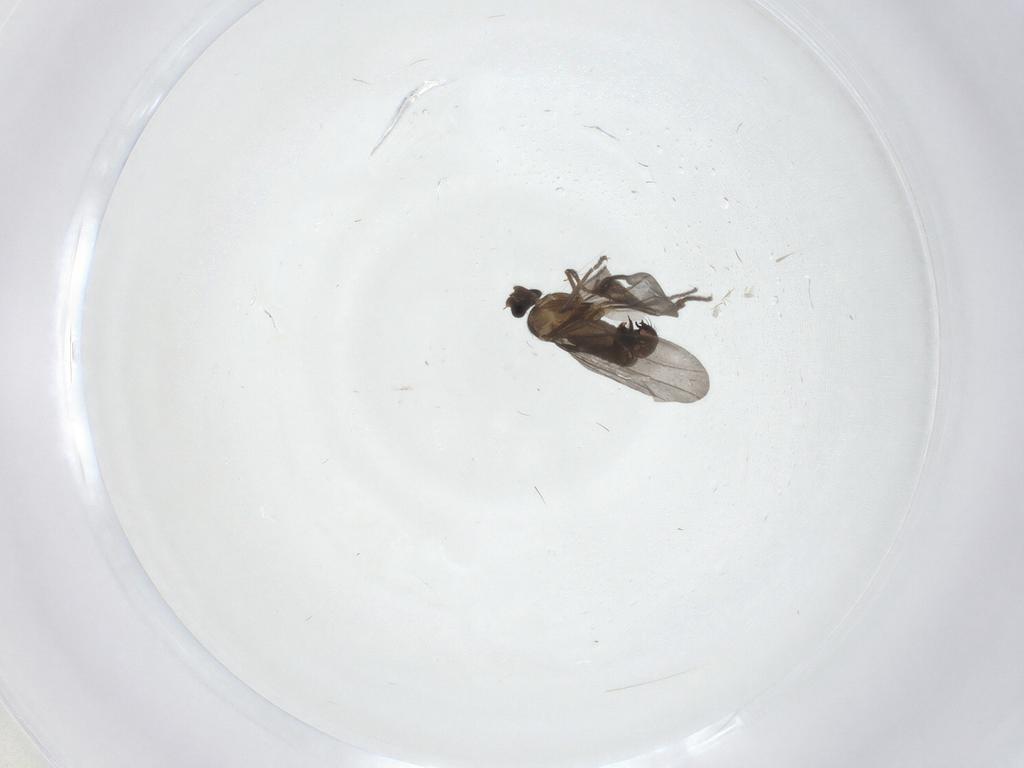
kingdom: Animalia
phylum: Arthropoda
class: Insecta
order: Diptera
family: Phoridae
